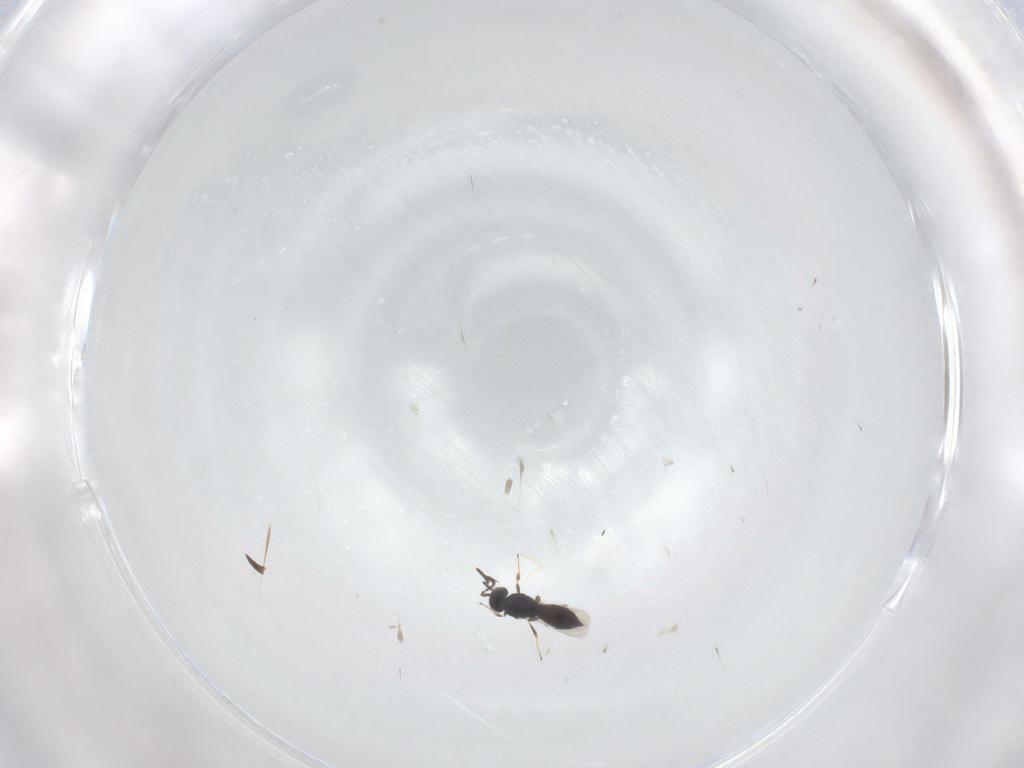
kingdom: Animalia
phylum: Arthropoda
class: Insecta
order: Hymenoptera
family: Scelionidae
